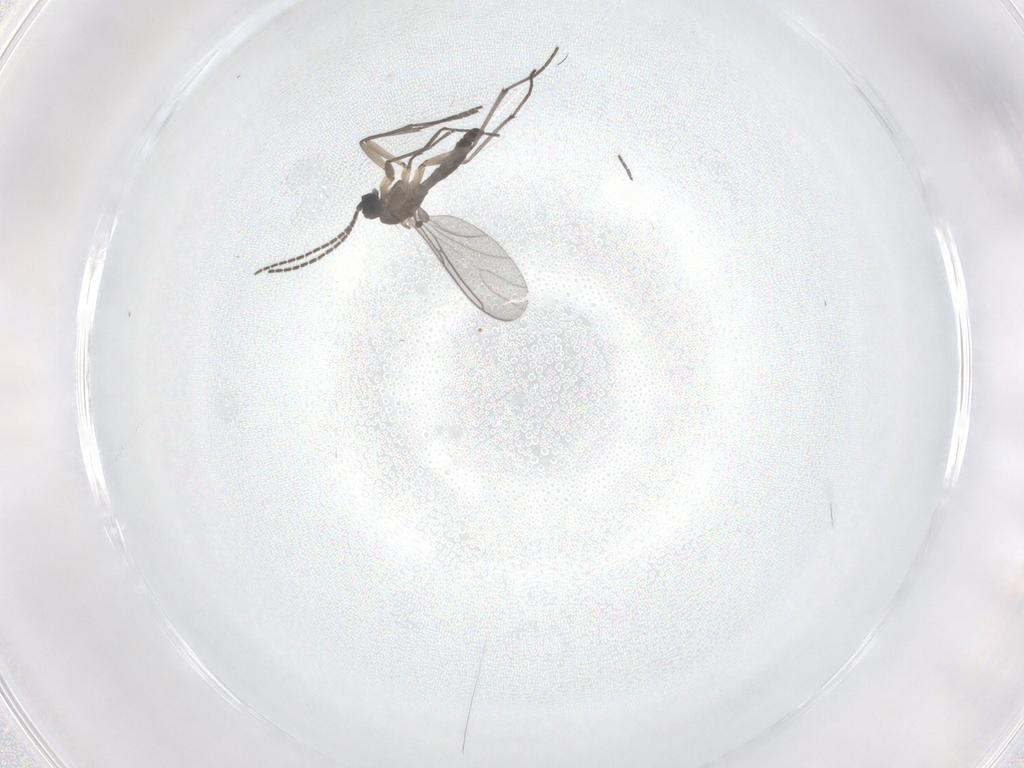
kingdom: Animalia
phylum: Arthropoda
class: Insecta
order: Diptera
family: Sciaridae
